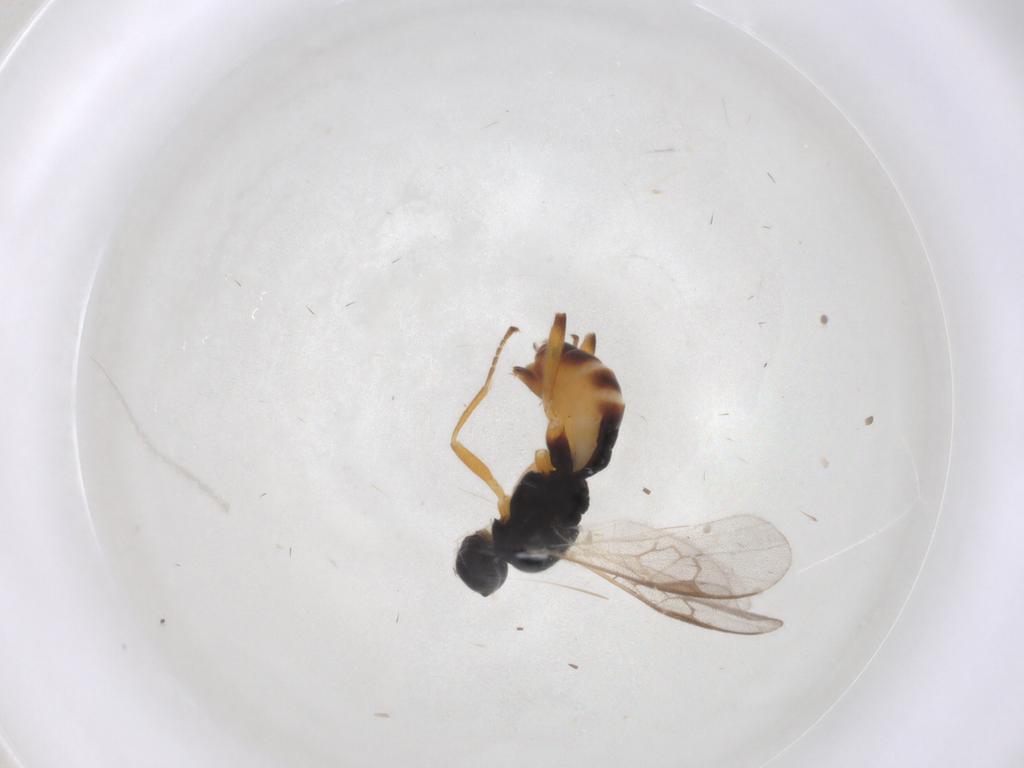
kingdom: Animalia
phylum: Arthropoda
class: Insecta
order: Hymenoptera
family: Braconidae
